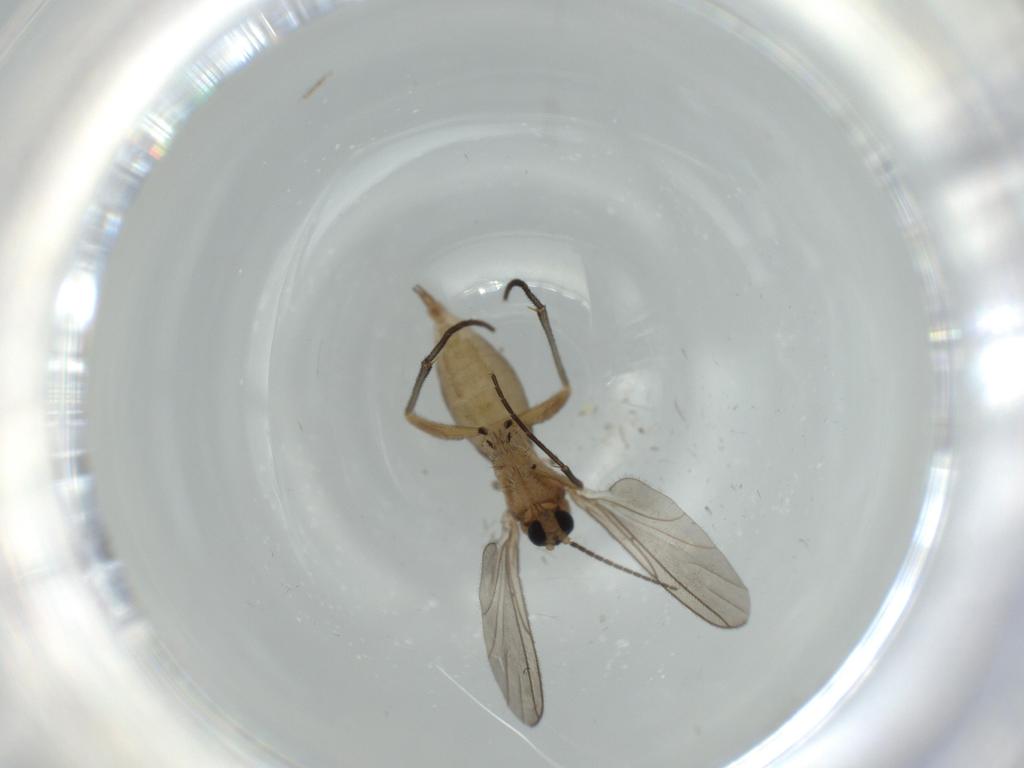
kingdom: Animalia
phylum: Arthropoda
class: Insecta
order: Diptera
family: Sciaridae
